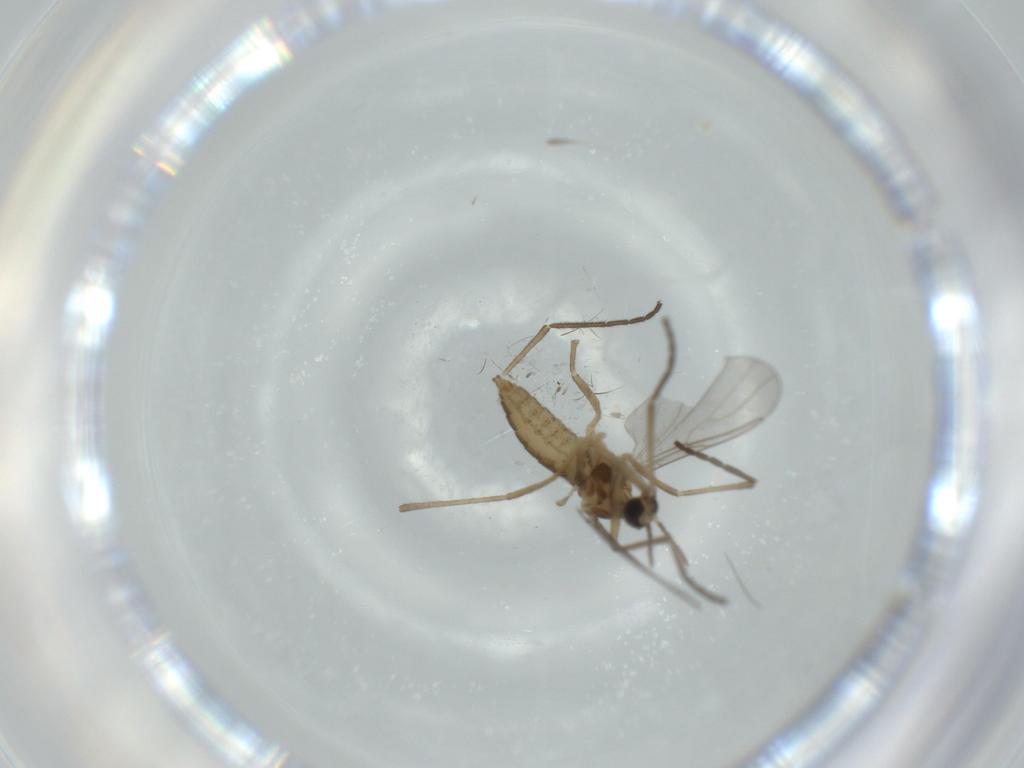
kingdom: Animalia
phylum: Arthropoda
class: Insecta
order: Diptera
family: Cecidomyiidae
